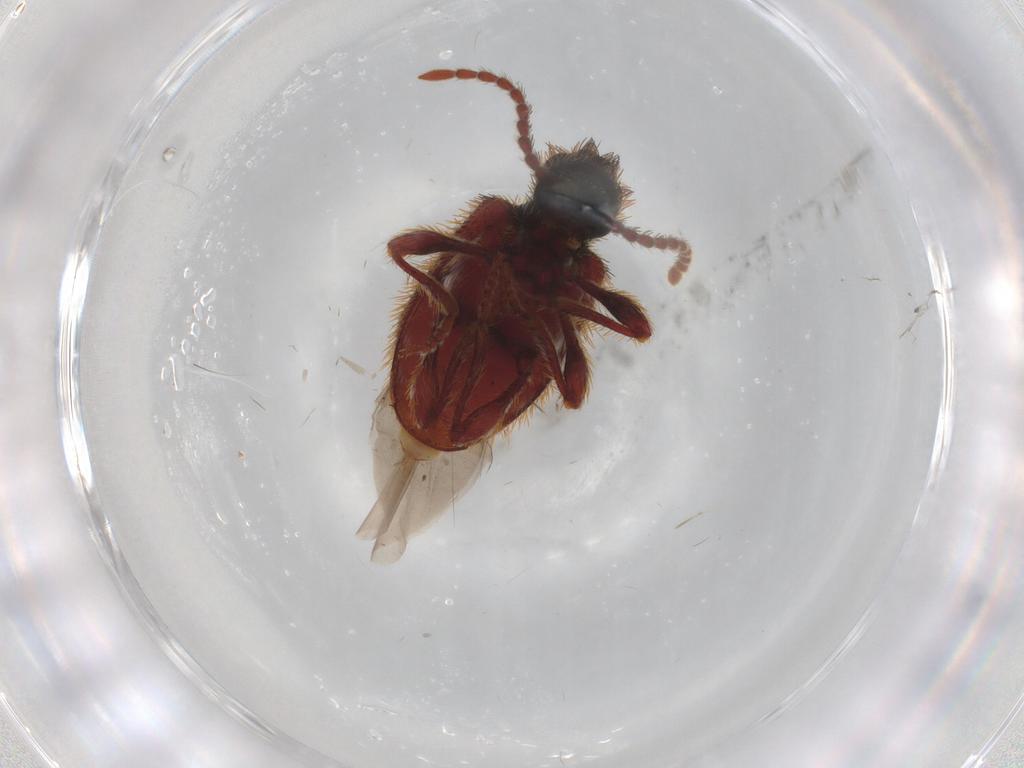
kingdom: Animalia
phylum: Arthropoda
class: Insecta
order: Coleoptera
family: Ptinidae
